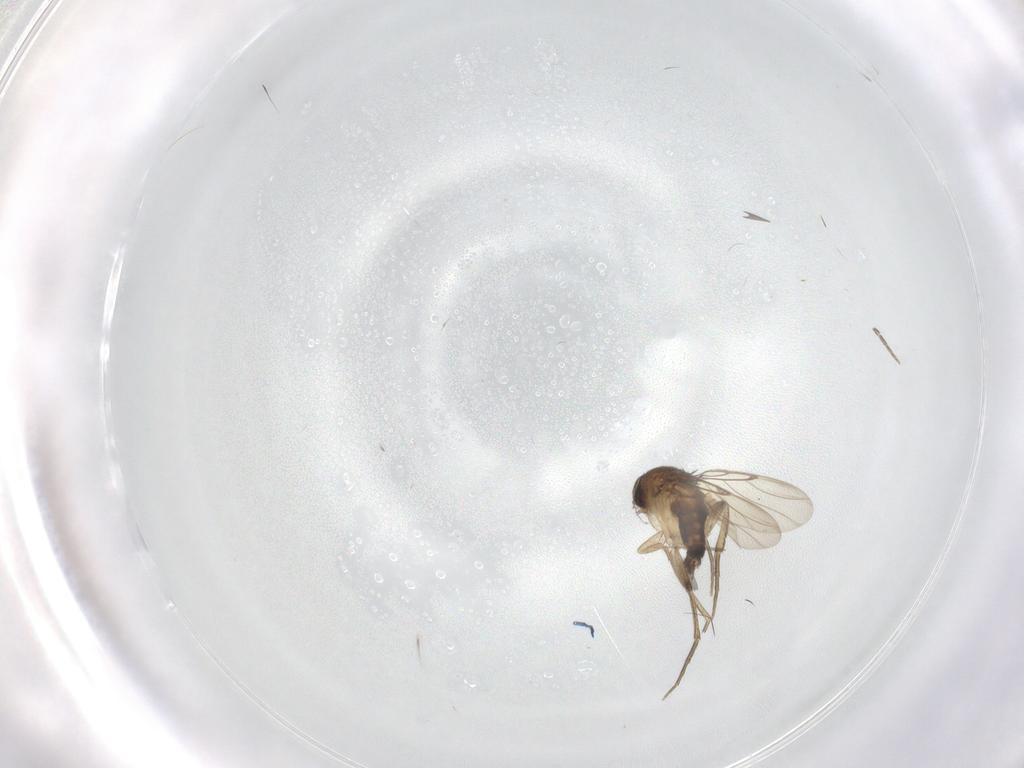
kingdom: Animalia
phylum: Arthropoda
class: Insecta
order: Diptera
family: Phoridae
